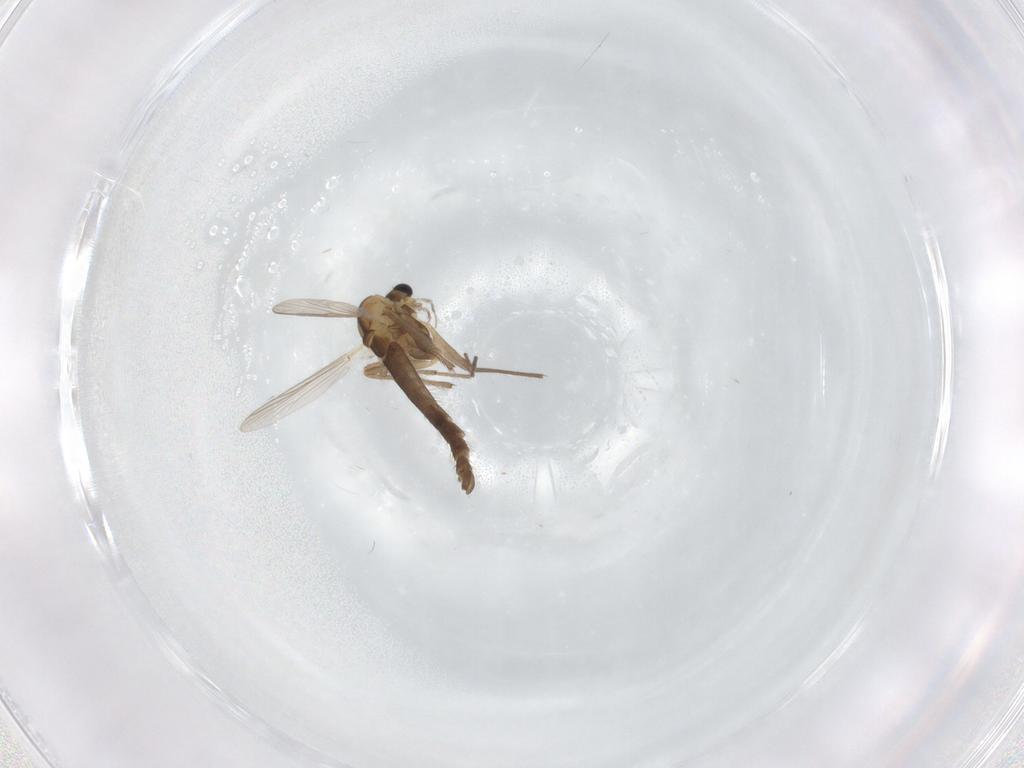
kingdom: Animalia
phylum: Arthropoda
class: Insecta
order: Diptera
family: Chironomidae
